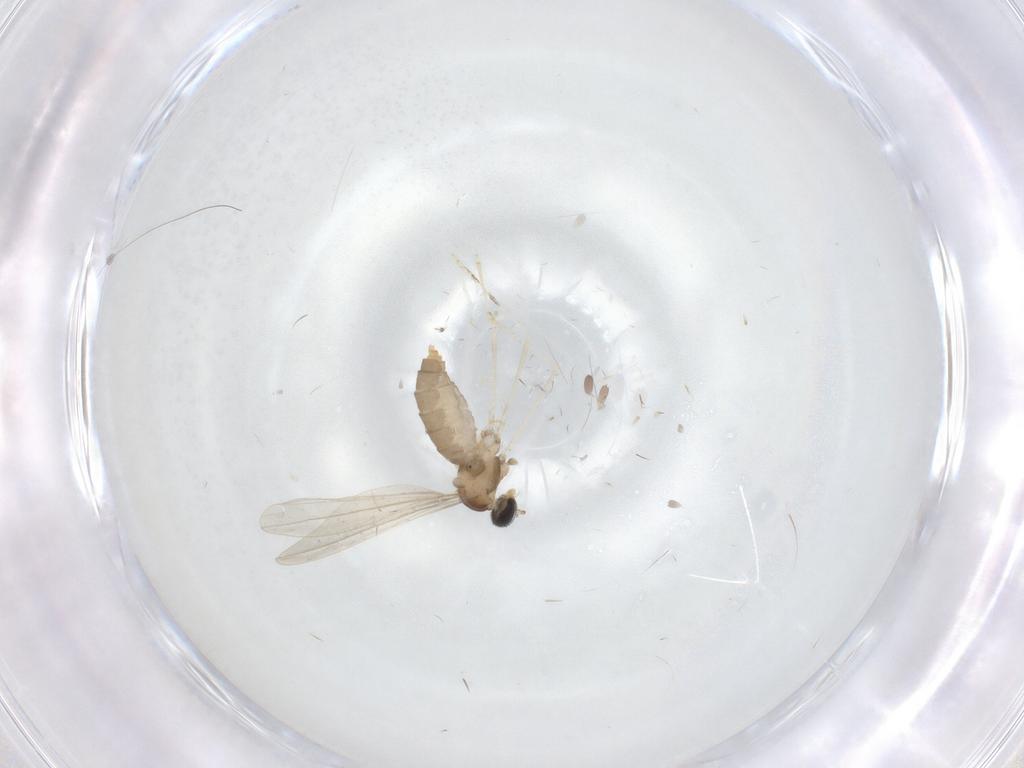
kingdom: Animalia
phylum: Arthropoda
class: Insecta
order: Diptera
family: Cecidomyiidae
